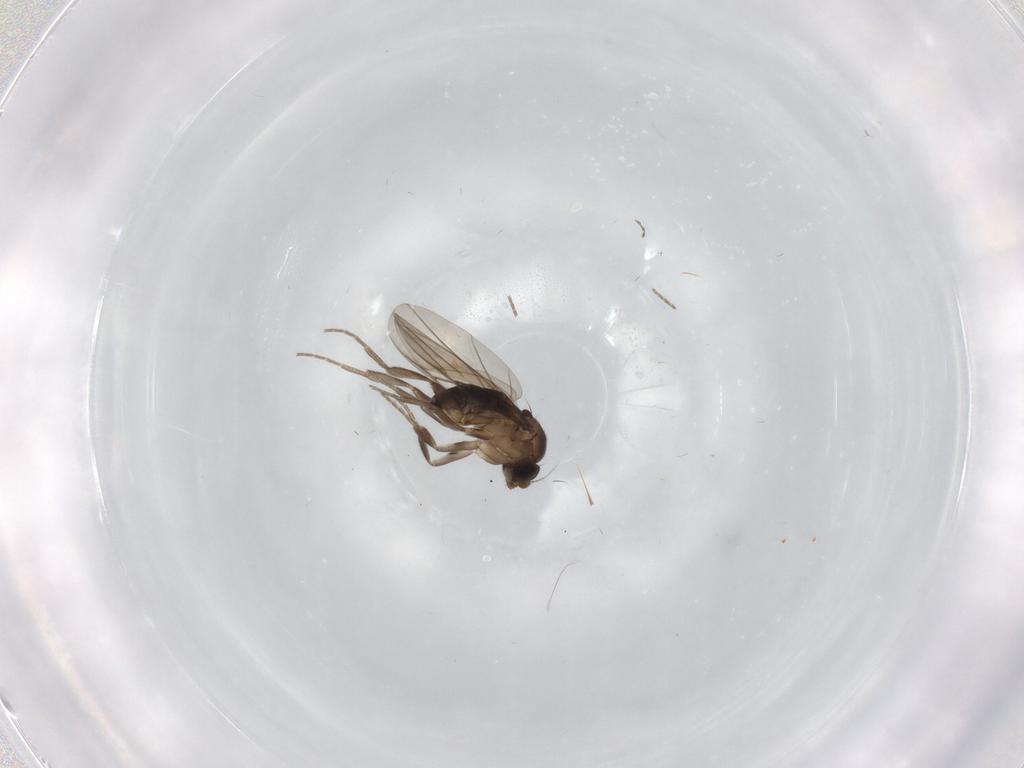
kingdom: Animalia
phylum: Arthropoda
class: Insecta
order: Diptera
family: Phoridae
